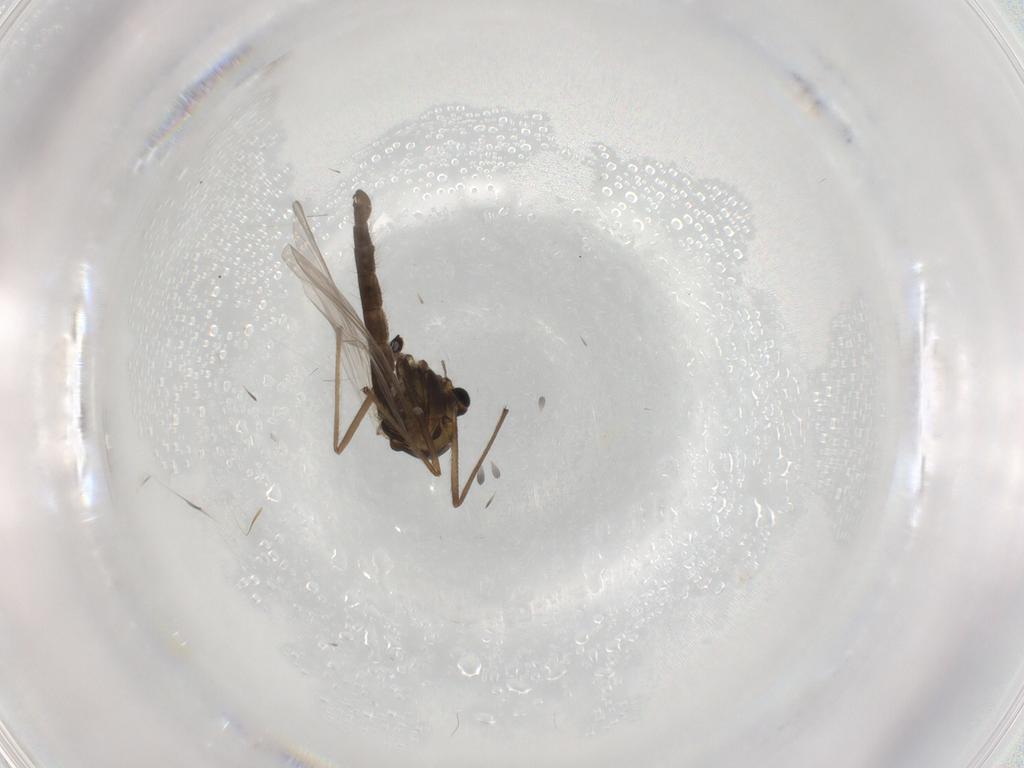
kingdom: Animalia
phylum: Arthropoda
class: Insecta
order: Diptera
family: Chironomidae
